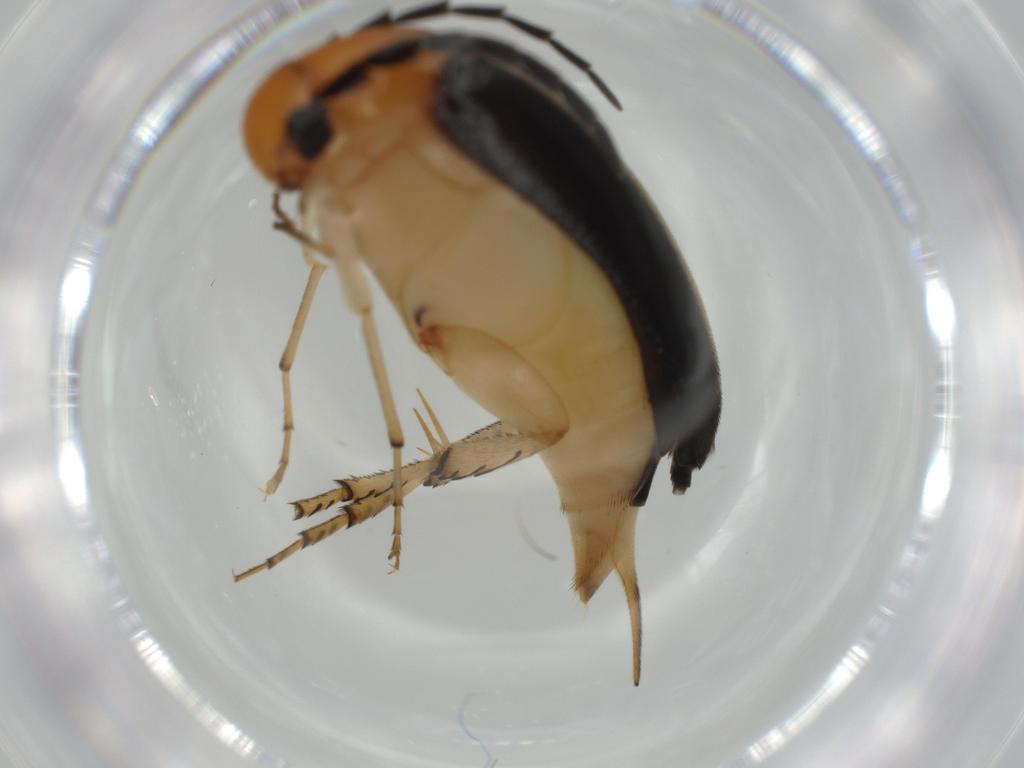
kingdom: Animalia
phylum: Arthropoda
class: Insecta
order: Coleoptera
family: Mordellidae
